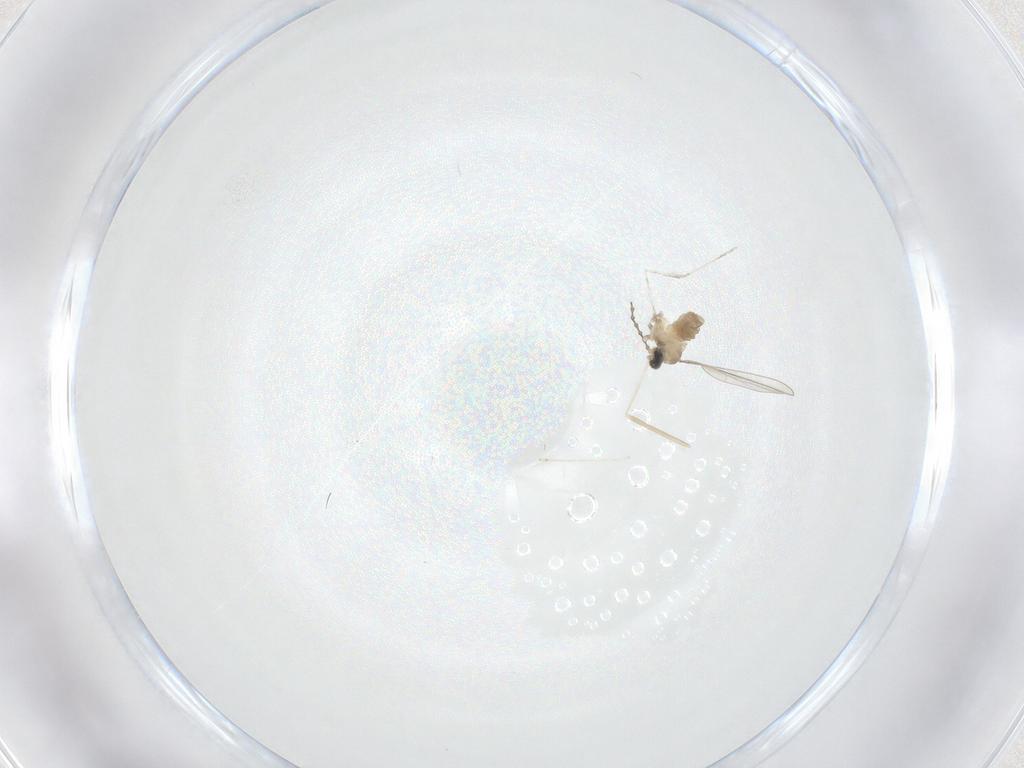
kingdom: Animalia
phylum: Arthropoda
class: Insecta
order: Diptera
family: Cecidomyiidae
